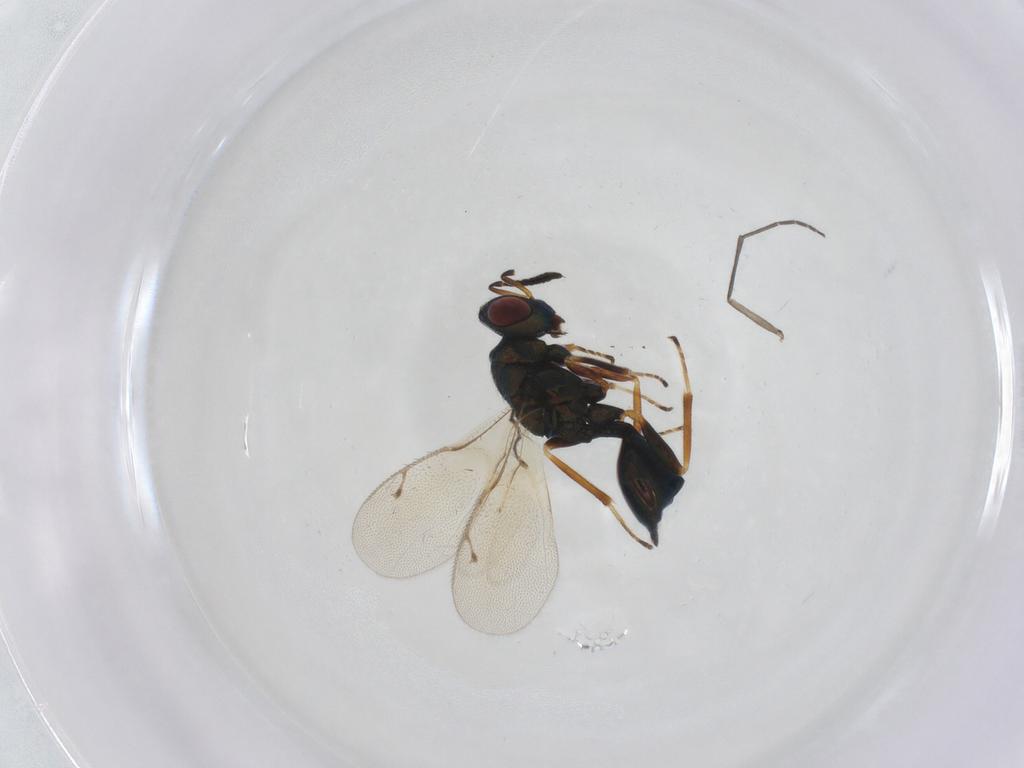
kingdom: Animalia
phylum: Arthropoda
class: Insecta
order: Hymenoptera
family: Pteromalidae
